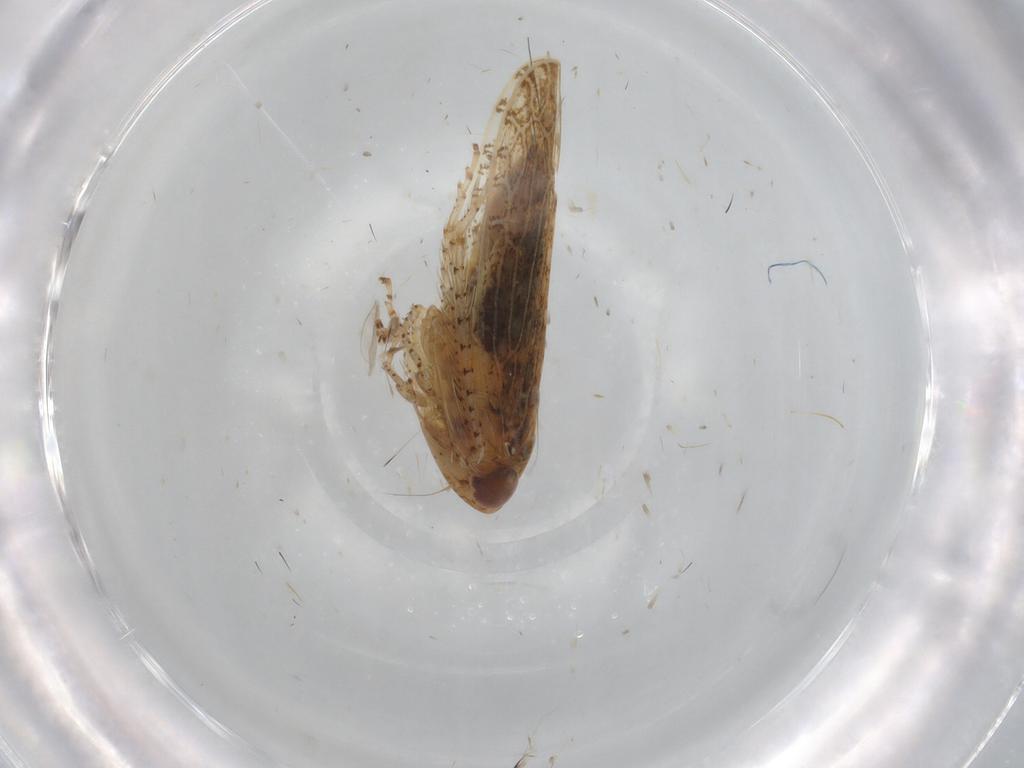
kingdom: Animalia
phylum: Arthropoda
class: Insecta
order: Hemiptera
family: Cicadellidae
